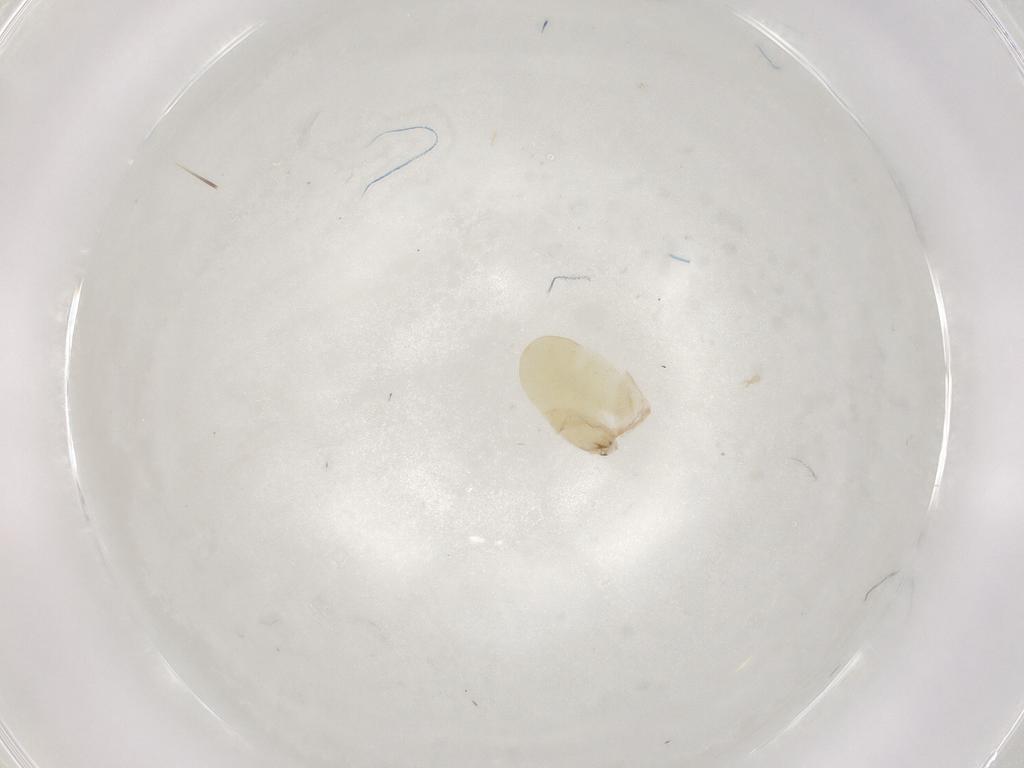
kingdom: Animalia
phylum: Arthropoda
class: Insecta
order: Hymenoptera
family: Dryinidae
